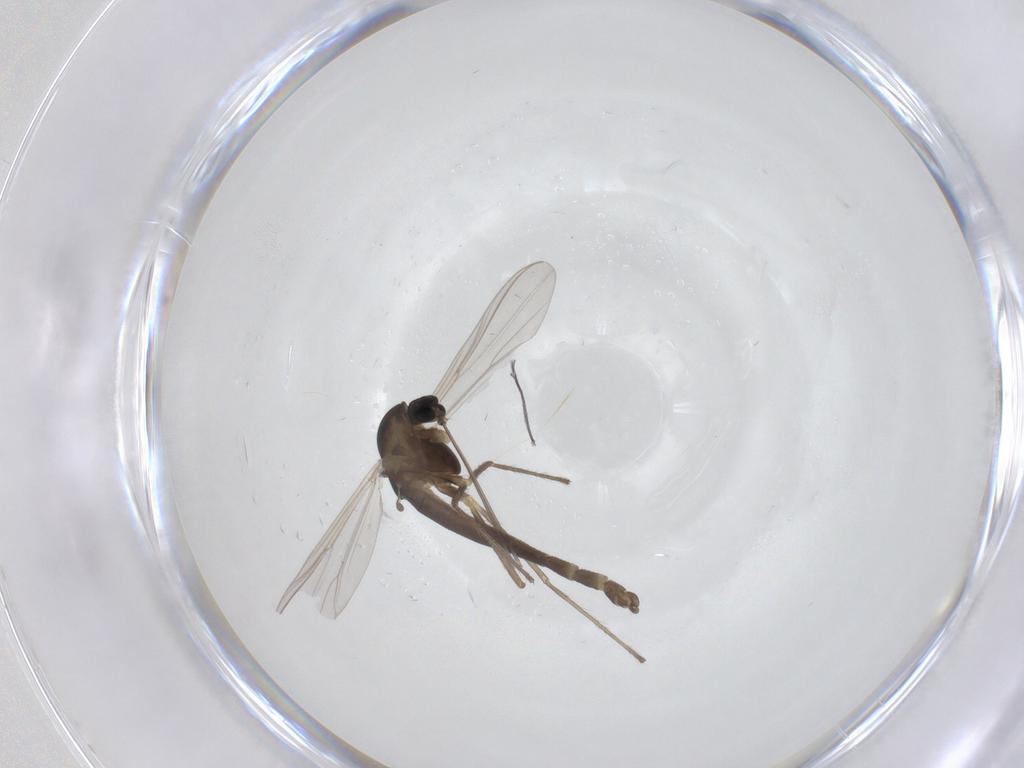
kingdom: Animalia
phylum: Arthropoda
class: Insecta
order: Diptera
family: Chironomidae
